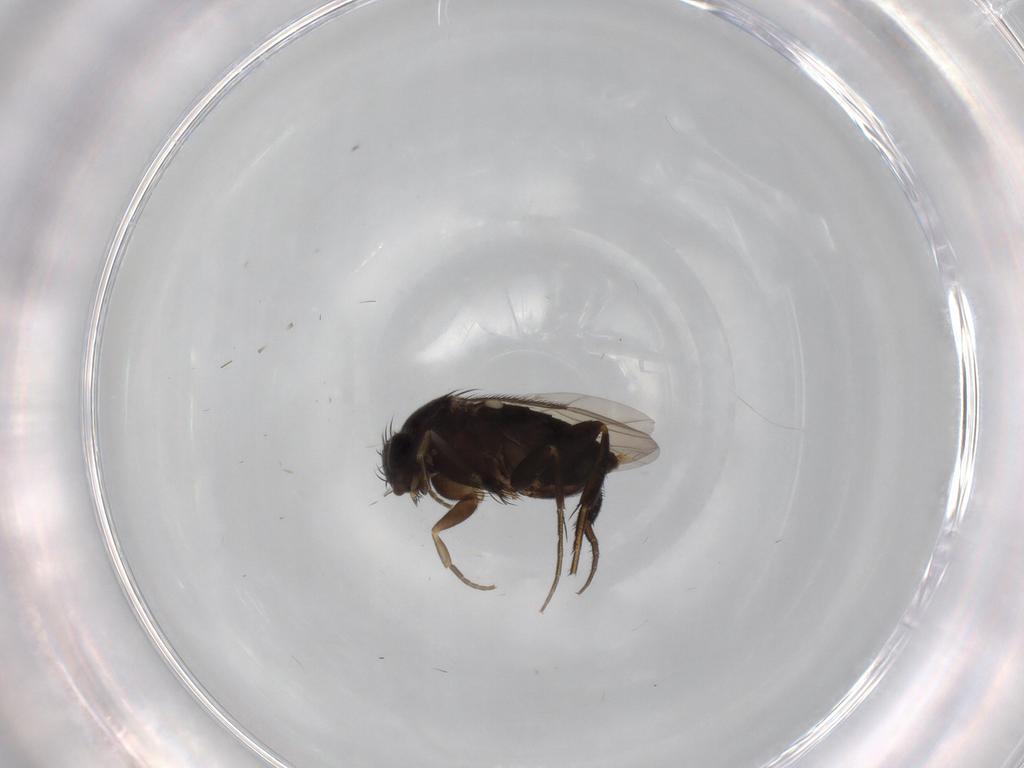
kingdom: Animalia
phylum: Arthropoda
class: Insecta
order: Diptera
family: Phoridae
